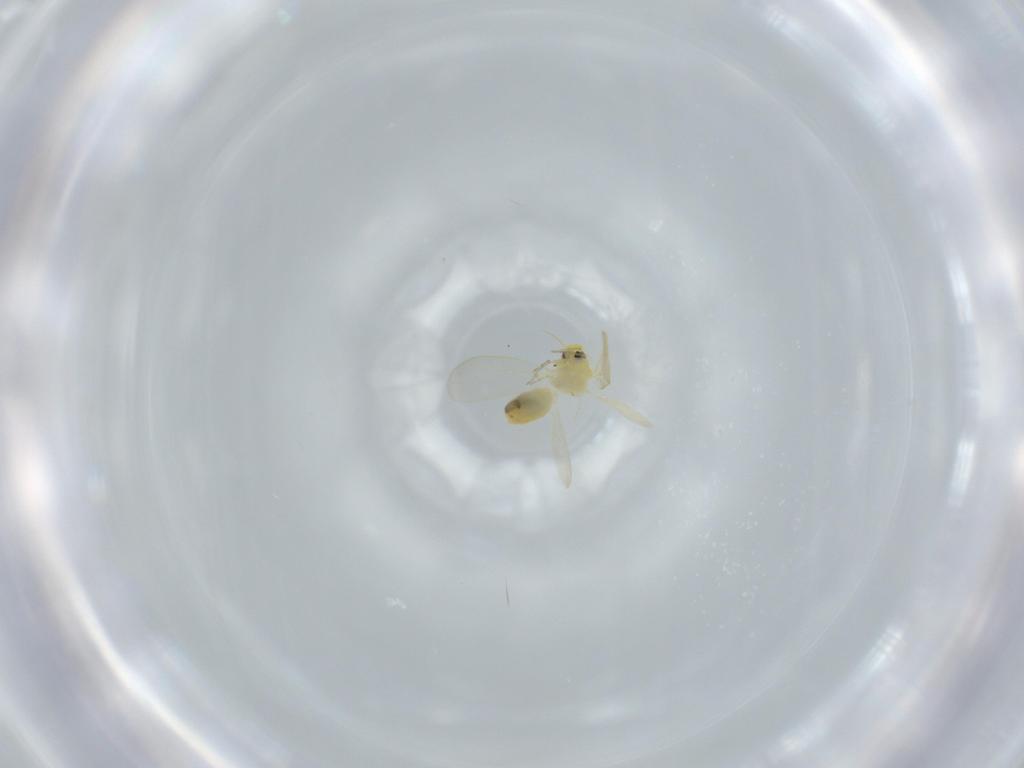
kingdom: Animalia
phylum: Arthropoda
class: Insecta
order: Hemiptera
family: Aleyrodidae
